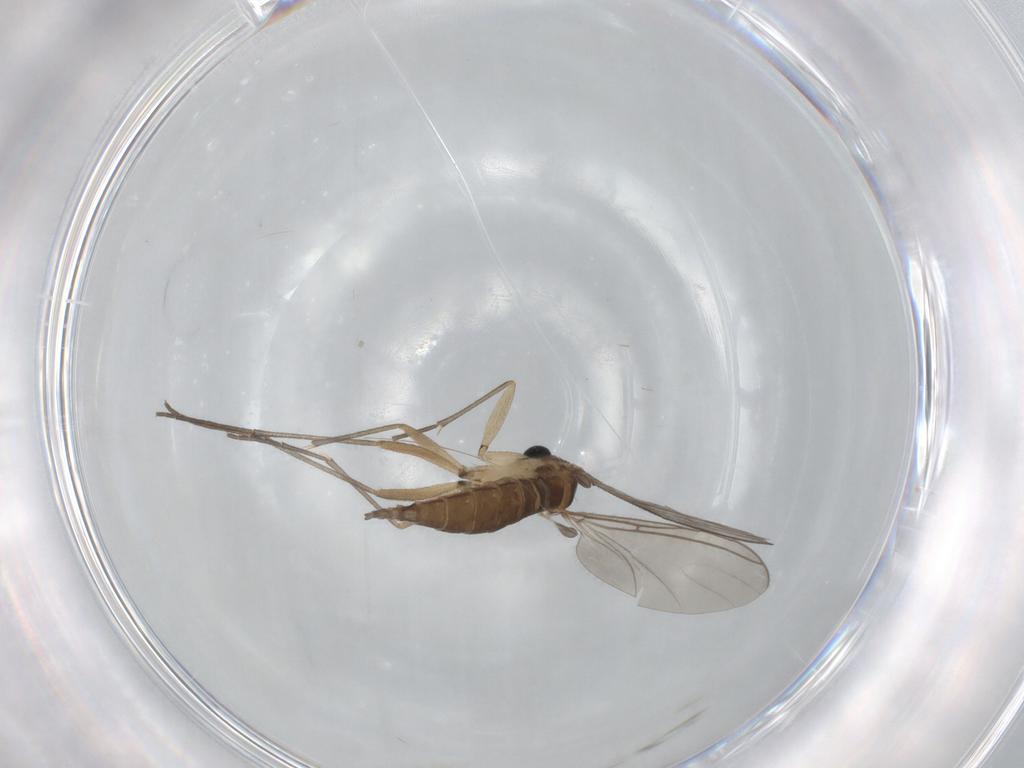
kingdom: Animalia
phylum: Arthropoda
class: Insecta
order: Diptera
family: Sciaridae
